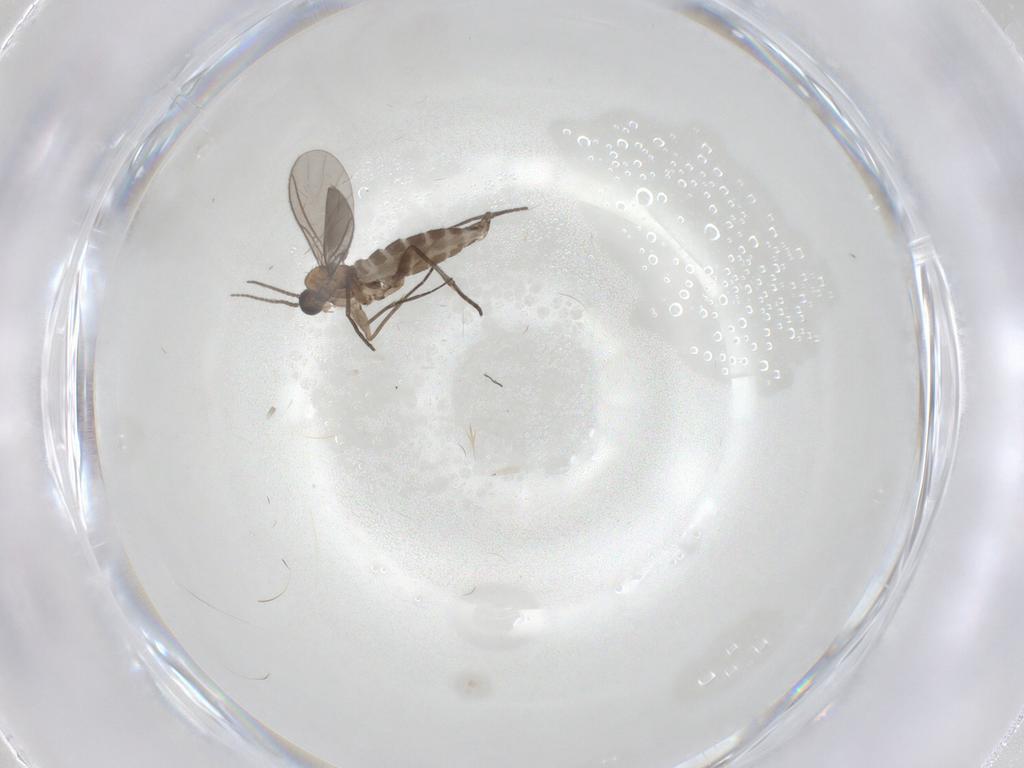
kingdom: Animalia
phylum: Arthropoda
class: Insecta
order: Diptera
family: Sciaridae
